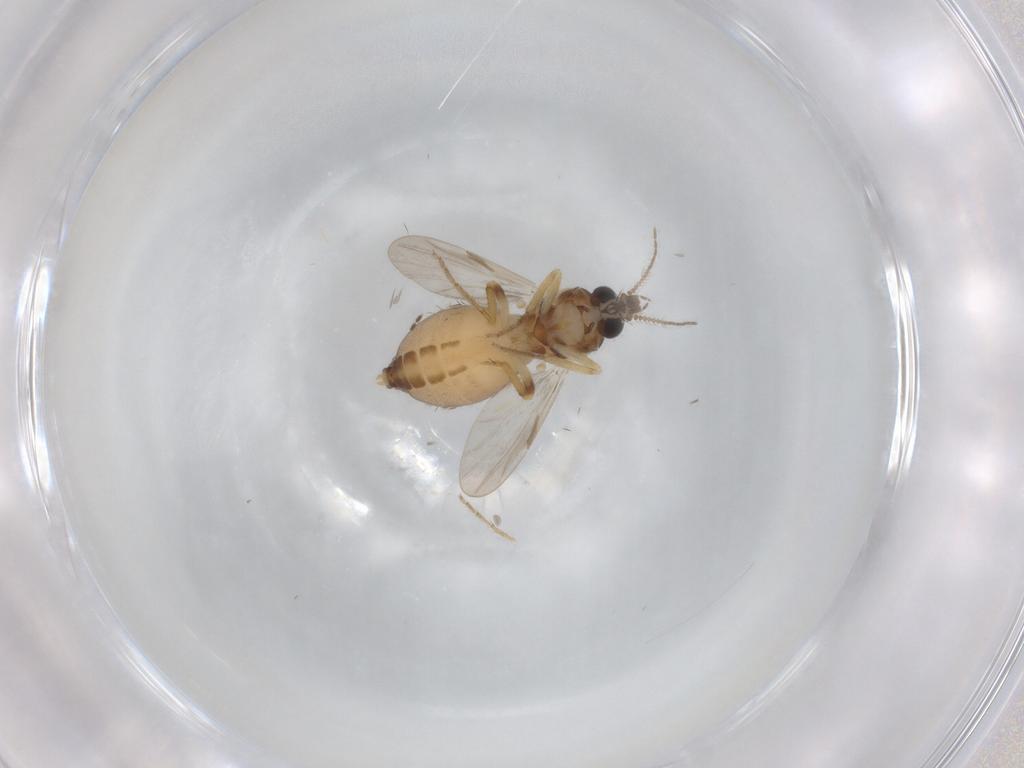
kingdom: Animalia
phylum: Arthropoda
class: Insecta
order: Diptera
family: Ceratopogonidae
